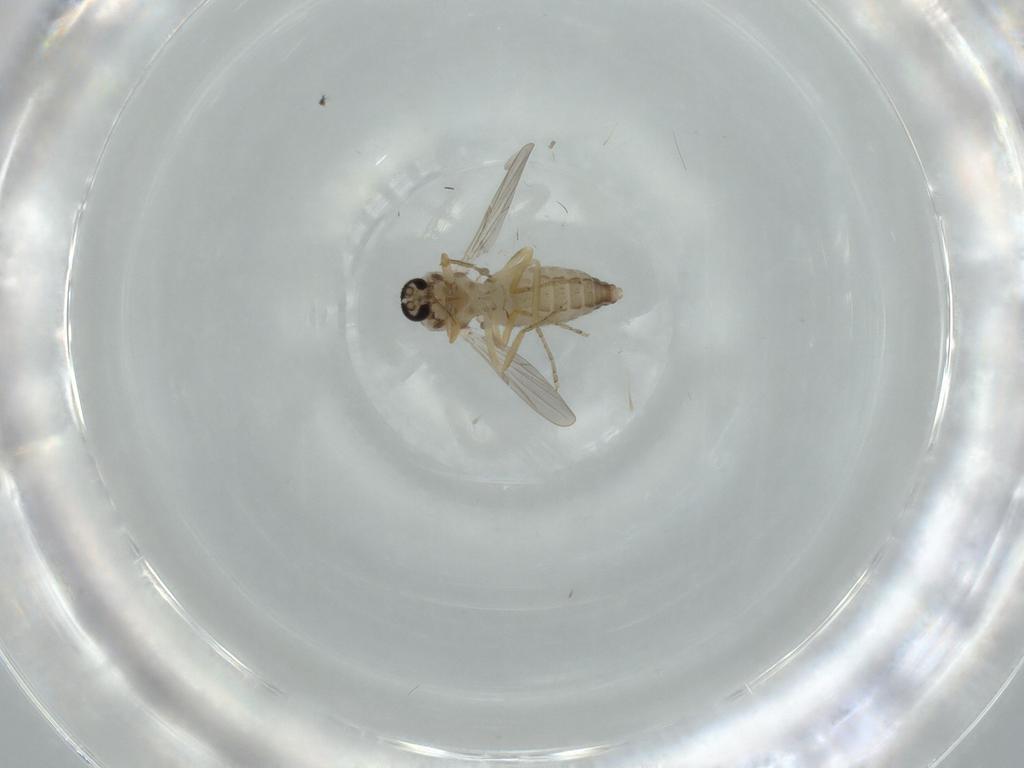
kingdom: Animalia
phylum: Arthropoda
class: Insecta
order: Diptera
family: Ceratopogonidae
